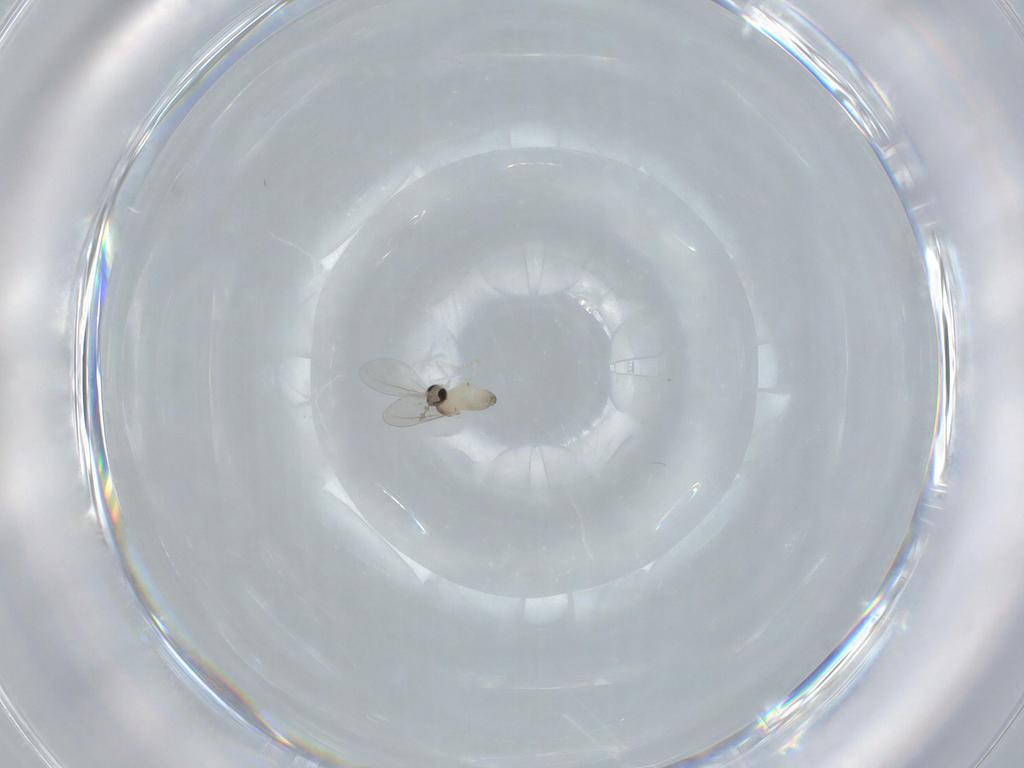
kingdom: Animalia
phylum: Arthropoda
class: Insecta
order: Diptera
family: Cecidomyiidae
